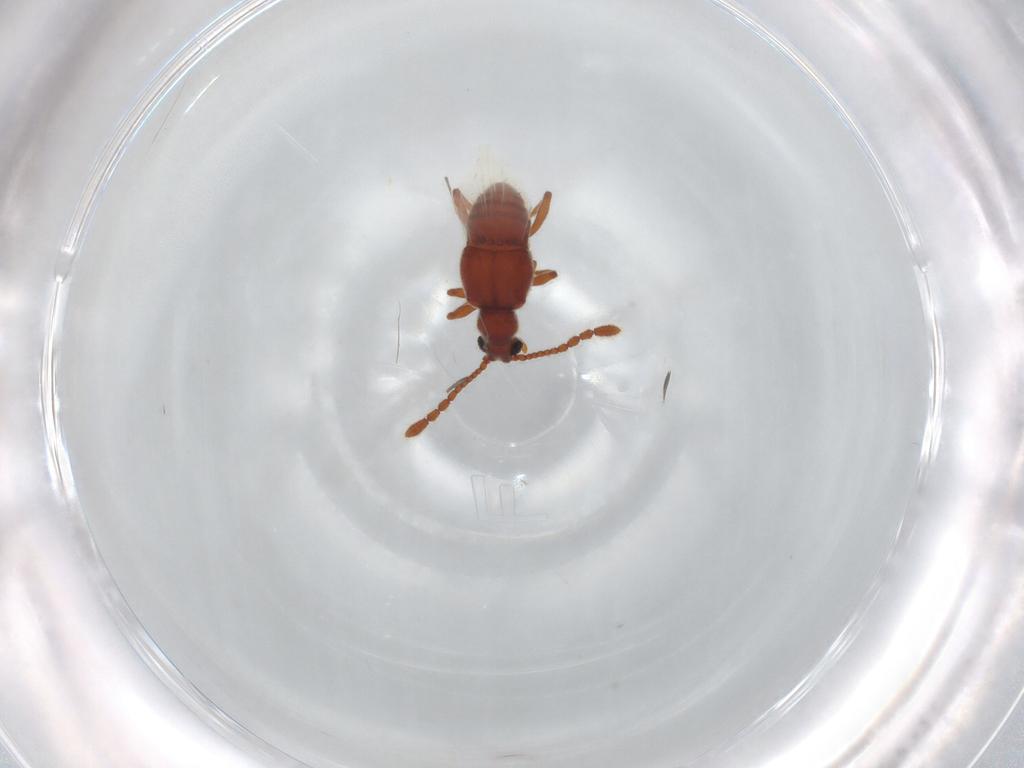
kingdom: Animalia
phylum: Arthropoda
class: Insecta
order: Coleoptera
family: Staphylinidae
